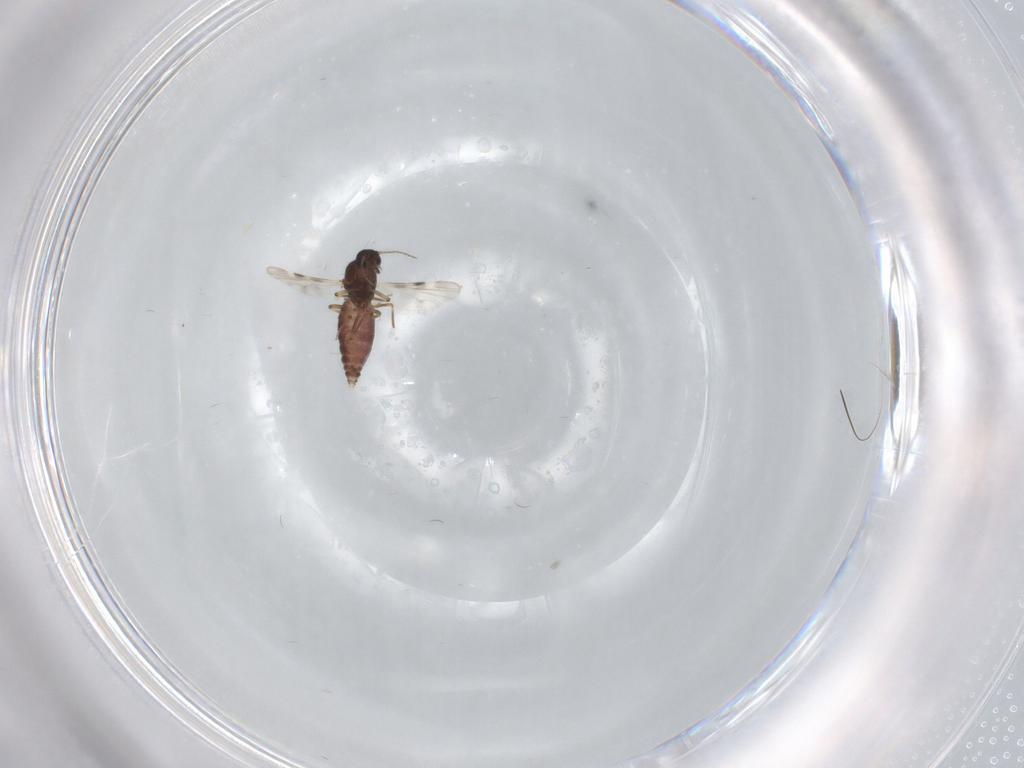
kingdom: Animalia
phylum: Arthropoda
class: Insecta
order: Diptera
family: Cecidomyiidae
